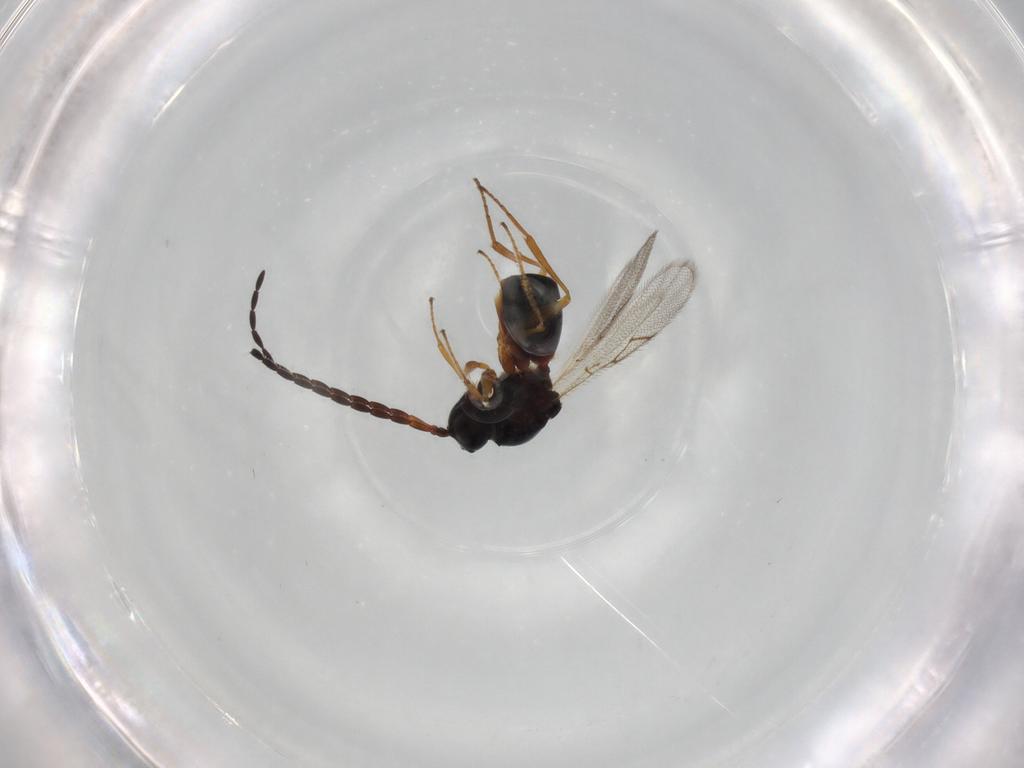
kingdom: Animalia
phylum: Arthropoda
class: Insecta
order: Hymenoptera
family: Figitidae
